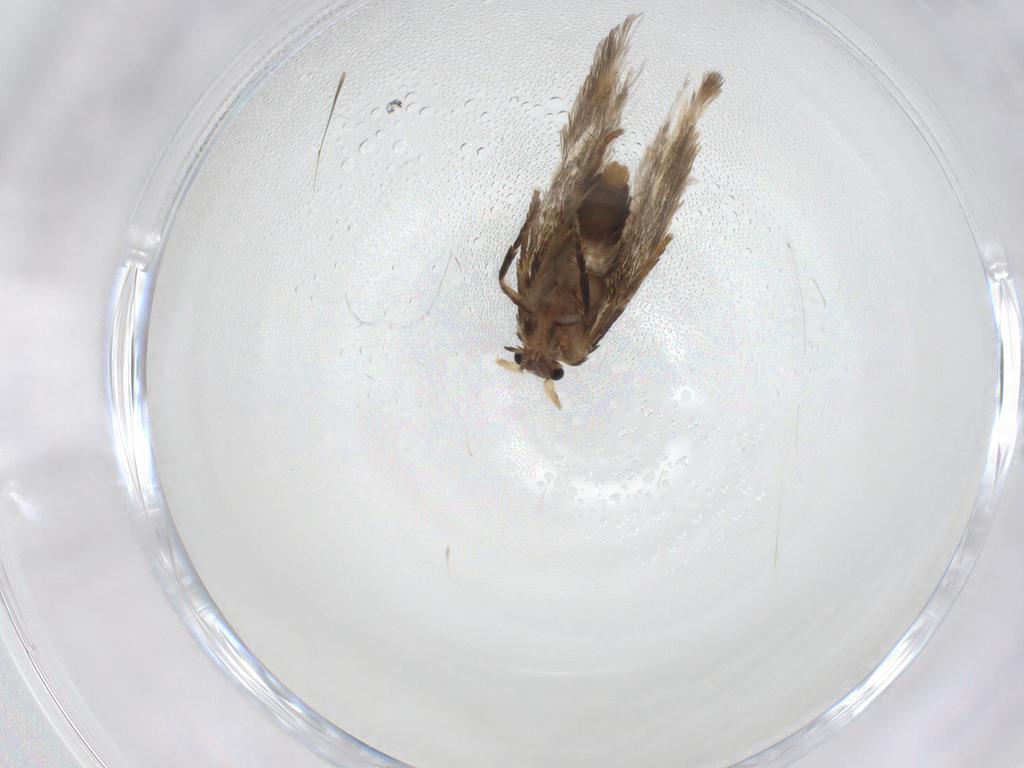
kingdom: Animalia
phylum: Arthropoda
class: Insecta
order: Lepidoptera
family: Nepticulidae
